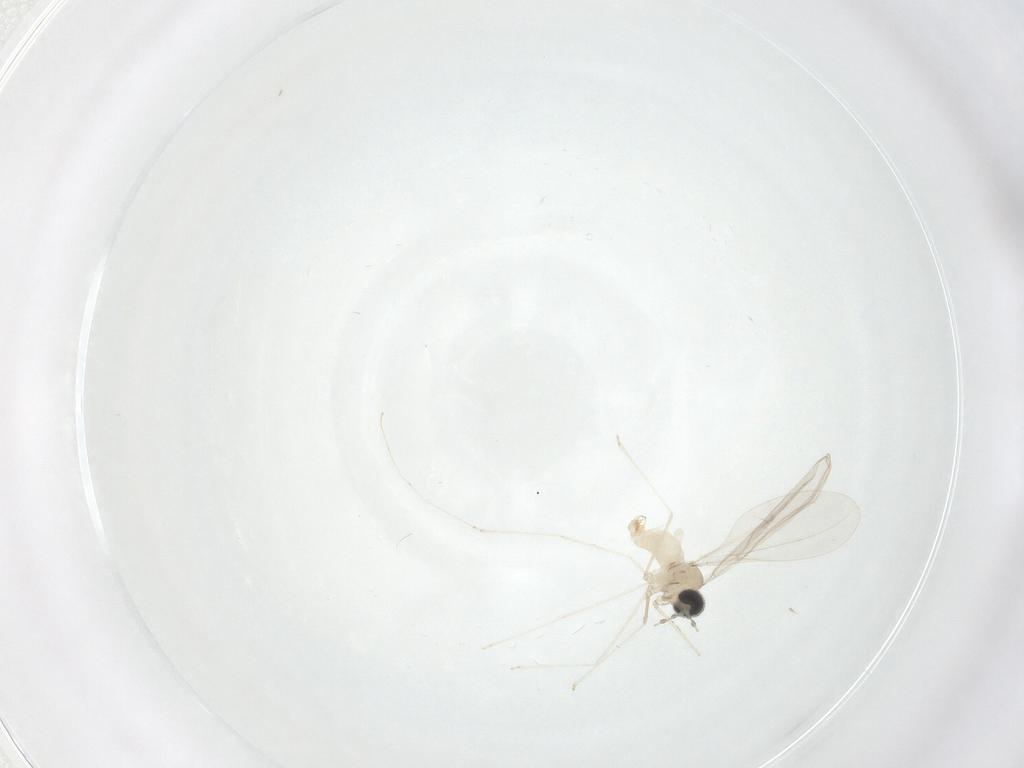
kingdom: Animalia
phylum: Arthropoda
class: Insecta
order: Diptera
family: Cecidomyiidae
